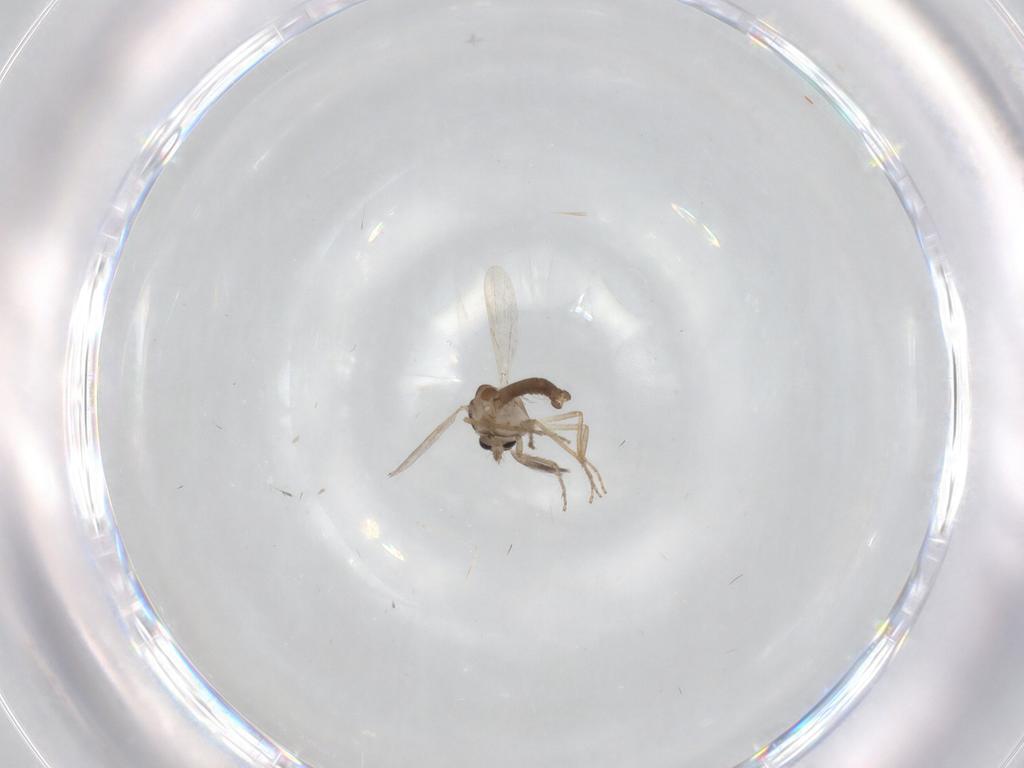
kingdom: Animalia
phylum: Arthropoda
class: Insecta
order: Diptera
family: Ceratopogonidae
